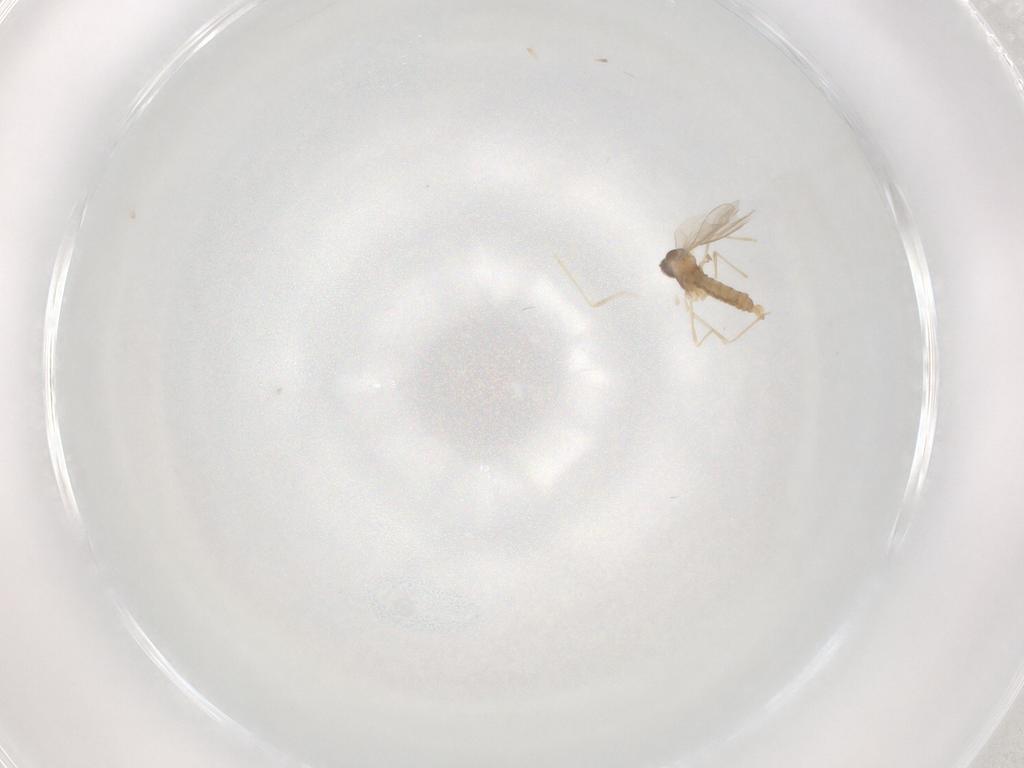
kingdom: Animalia
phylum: Arthropoda
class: Insecta
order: Diptera
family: Cecidomyiidae
